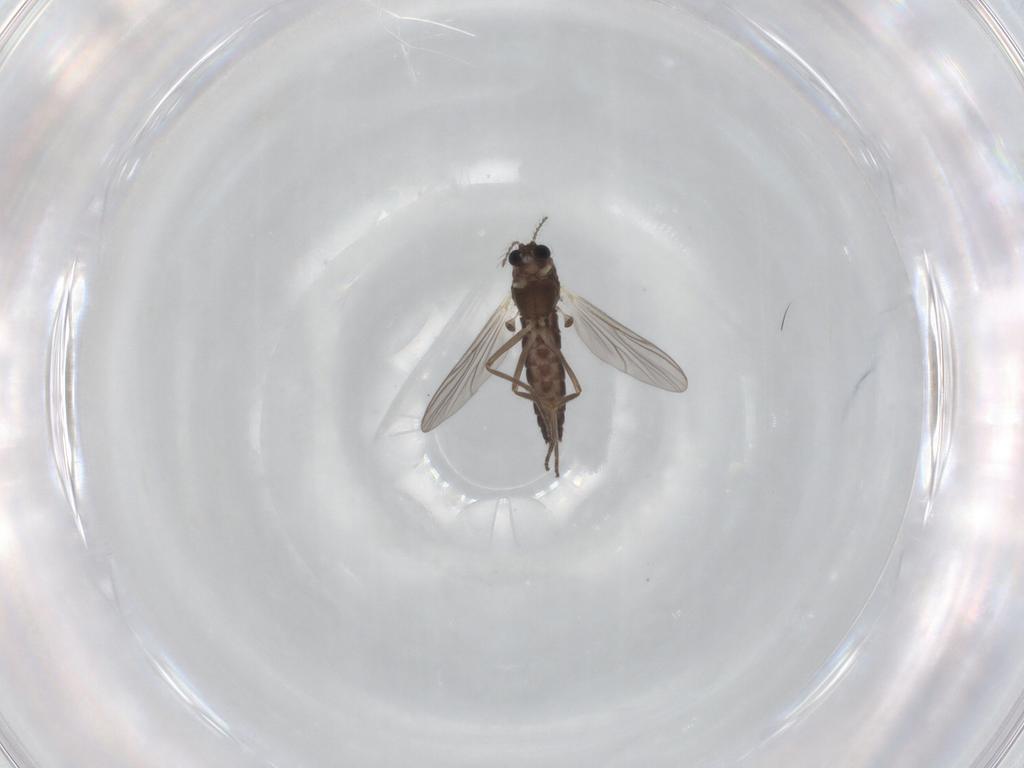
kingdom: Animalia
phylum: Arthropoda
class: Insecta
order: Diptera
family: Chironomidae
